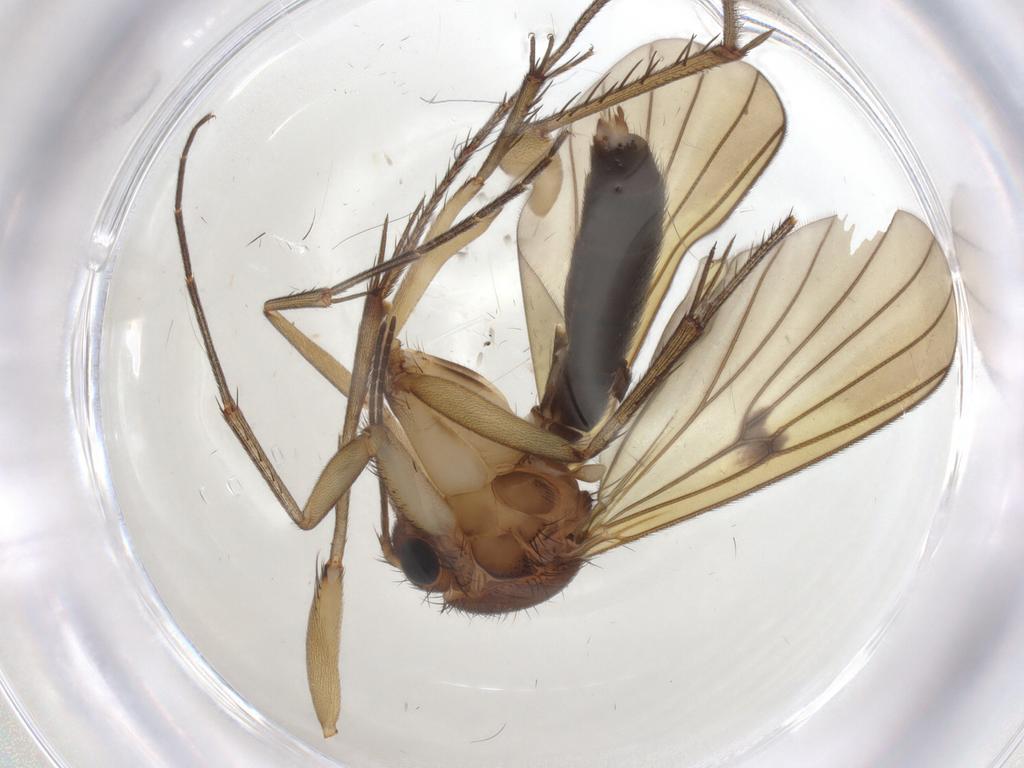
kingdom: Animalia
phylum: Arthropoda
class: Insecta
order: Diptera
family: Mycetophilidae
